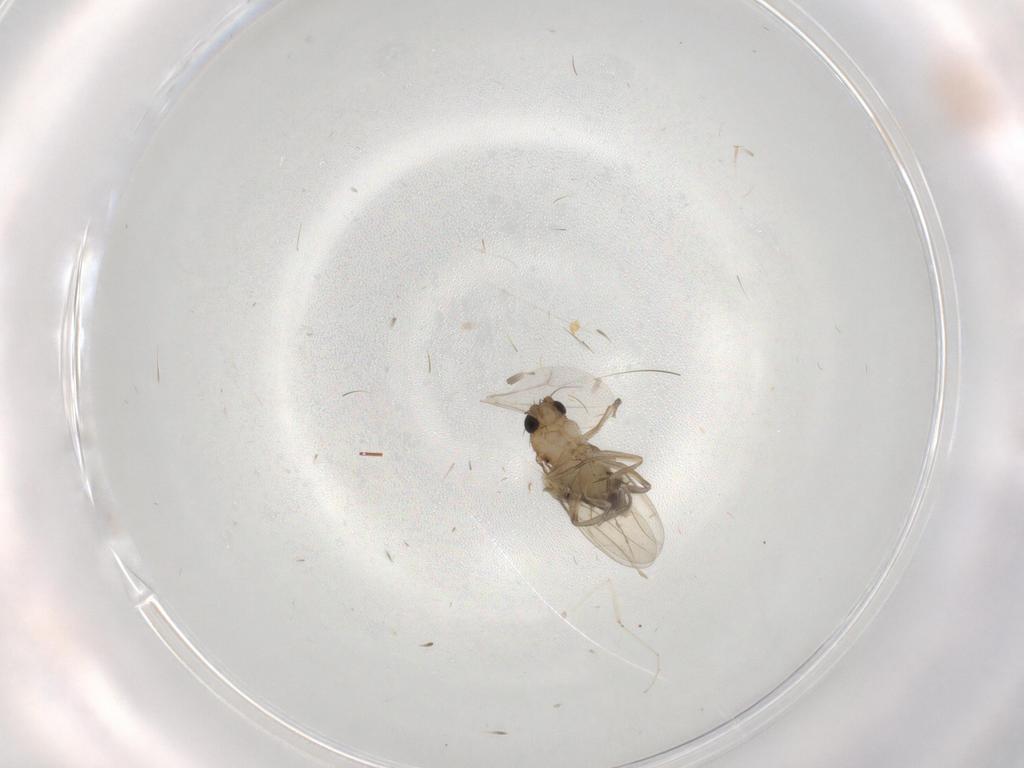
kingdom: Animalia
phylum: Arthropoda
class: Insecta
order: Diptera
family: Phoridae
